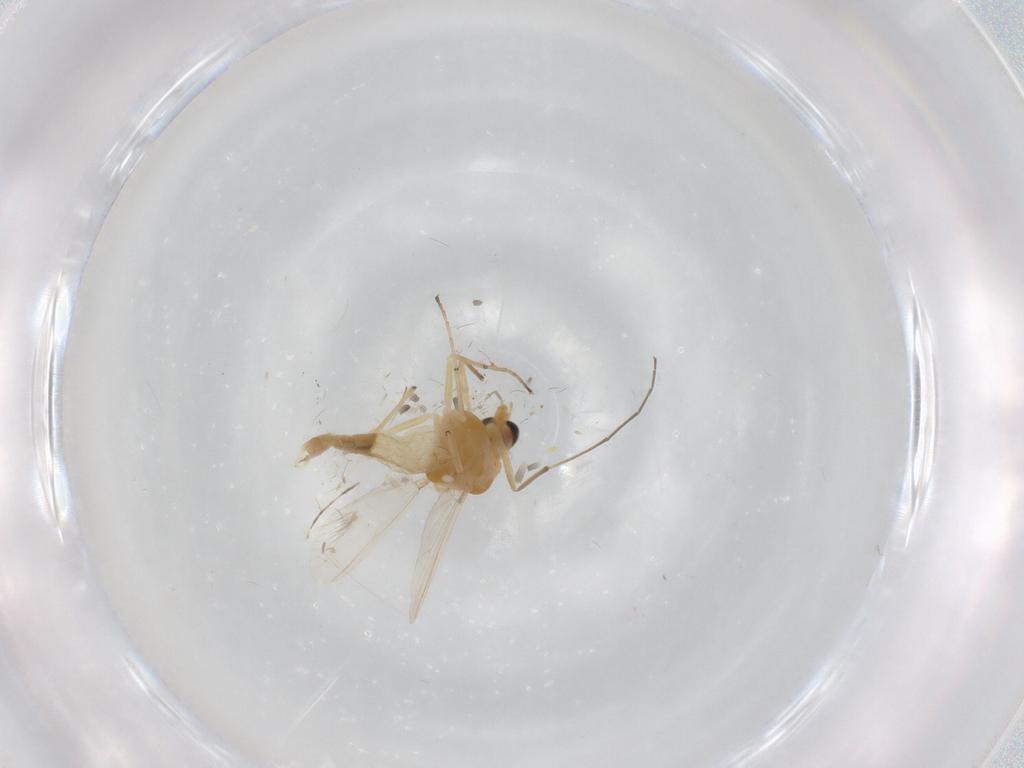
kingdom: Animalia
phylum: Arthropoda
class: Insecta
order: Diptera
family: Chironomidae
